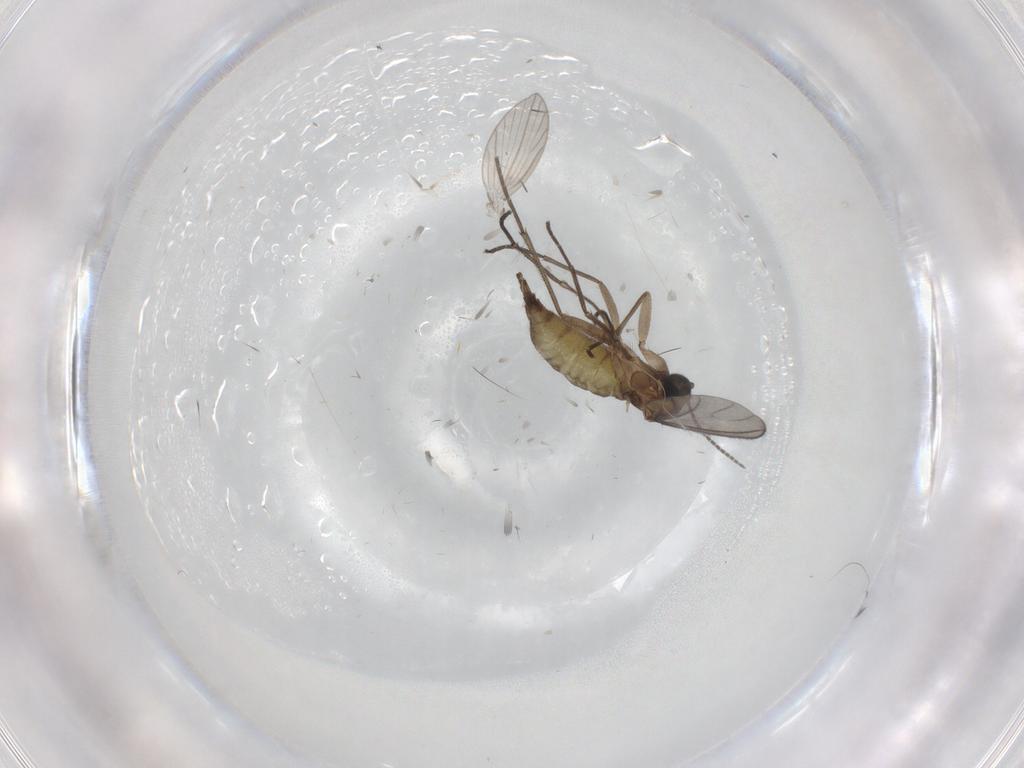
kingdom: Animalia
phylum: Arthropoda
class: Insecta
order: Diptera
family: Sciaridae
